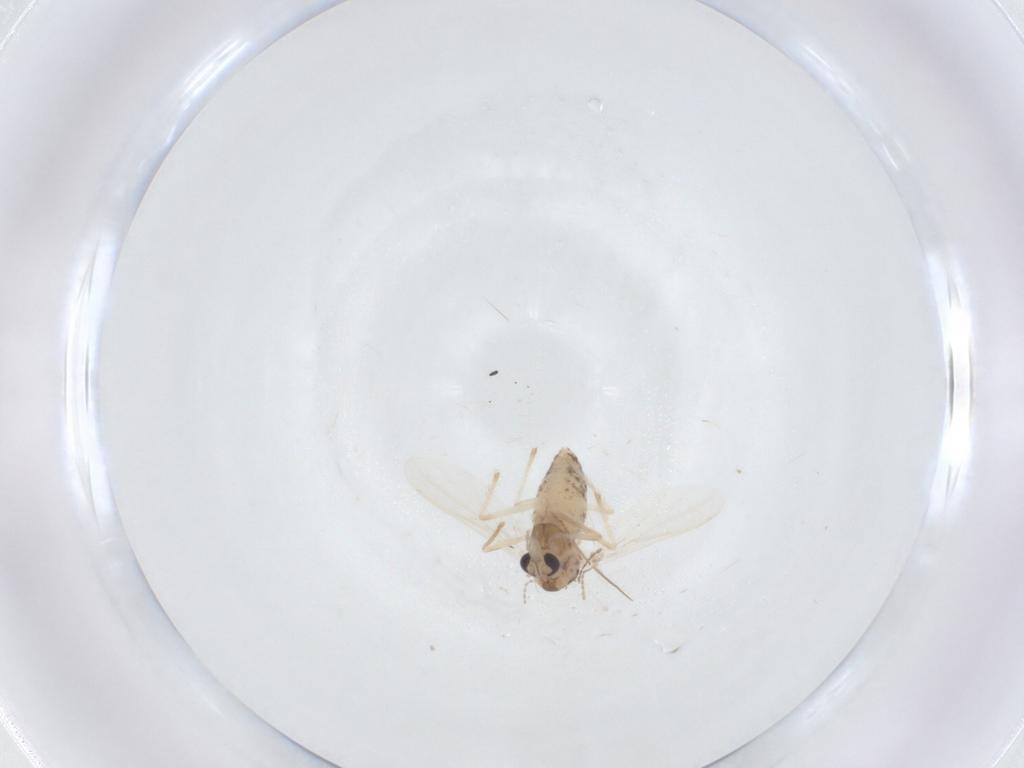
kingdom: Animalia
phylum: Arthropoda
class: Insecta
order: Diptera
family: Chironomidae
